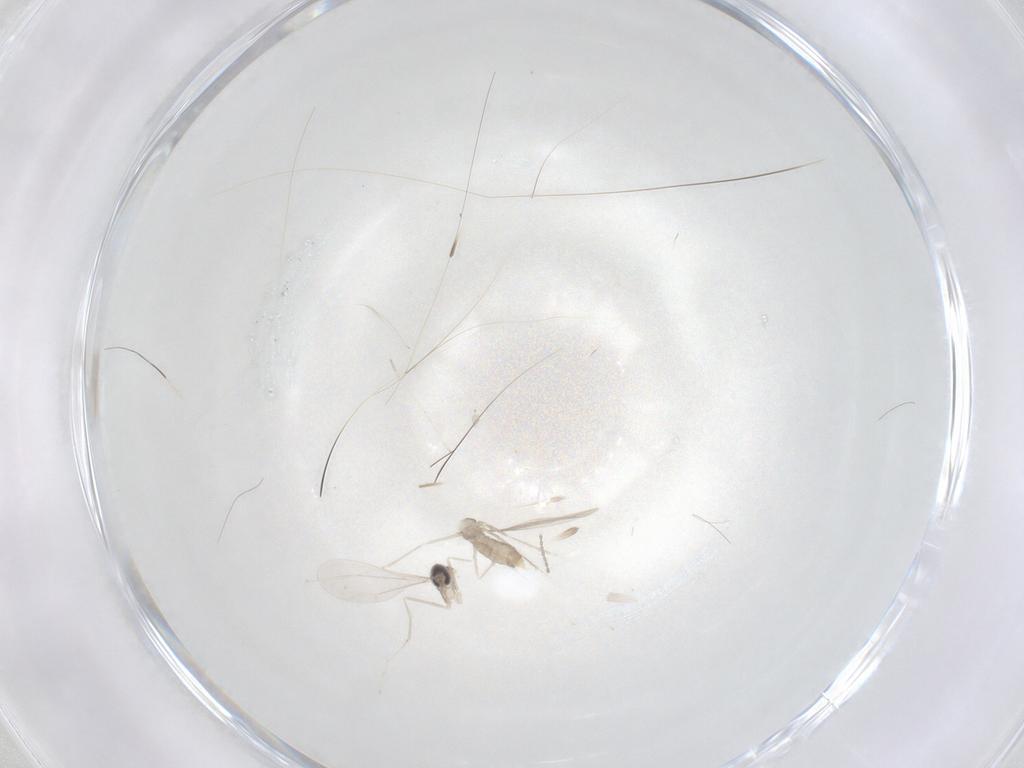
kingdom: Animalia
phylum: Arthropoda
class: Insecta
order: Diptera
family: Cecidomyiidae
